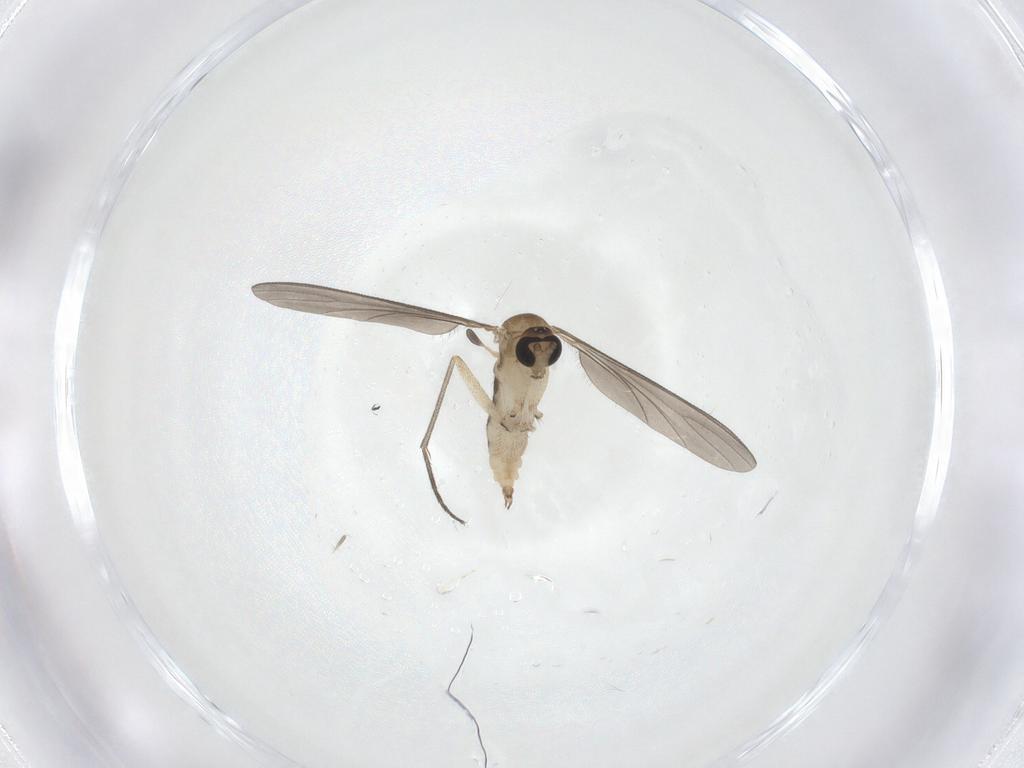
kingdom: Animalia
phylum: Arthropoda
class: Insecta
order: Diptera
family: Sciaridae
